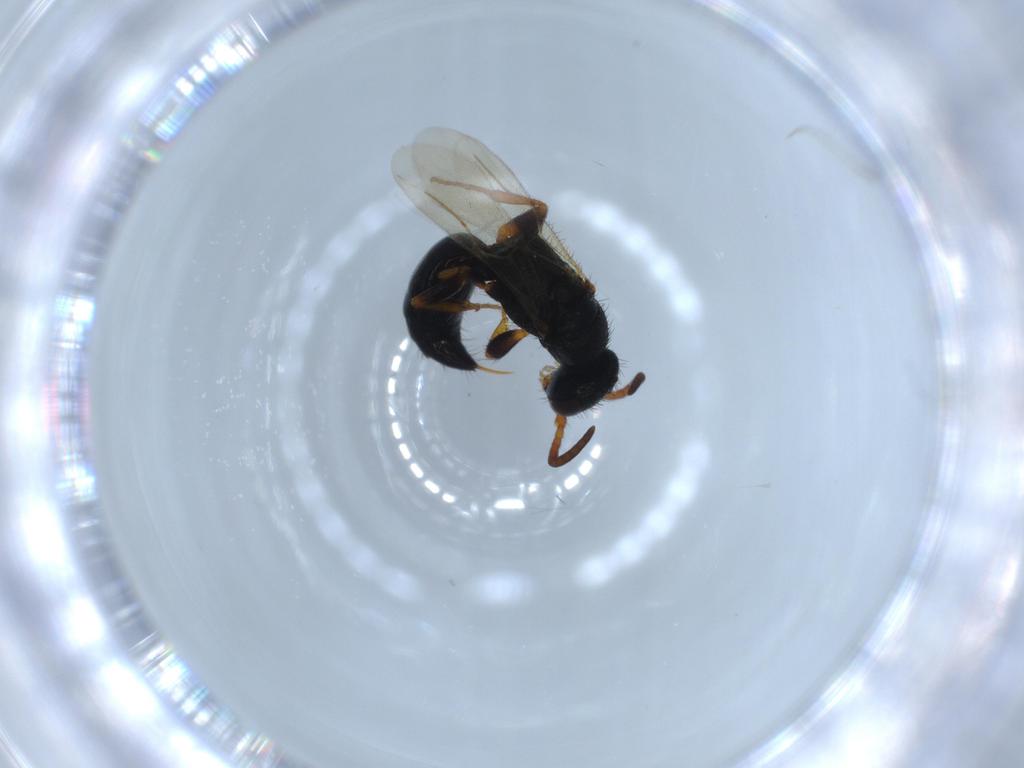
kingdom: Animalia
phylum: Arthropoda
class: Insecta
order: Hymenoptera
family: Bethylidae
